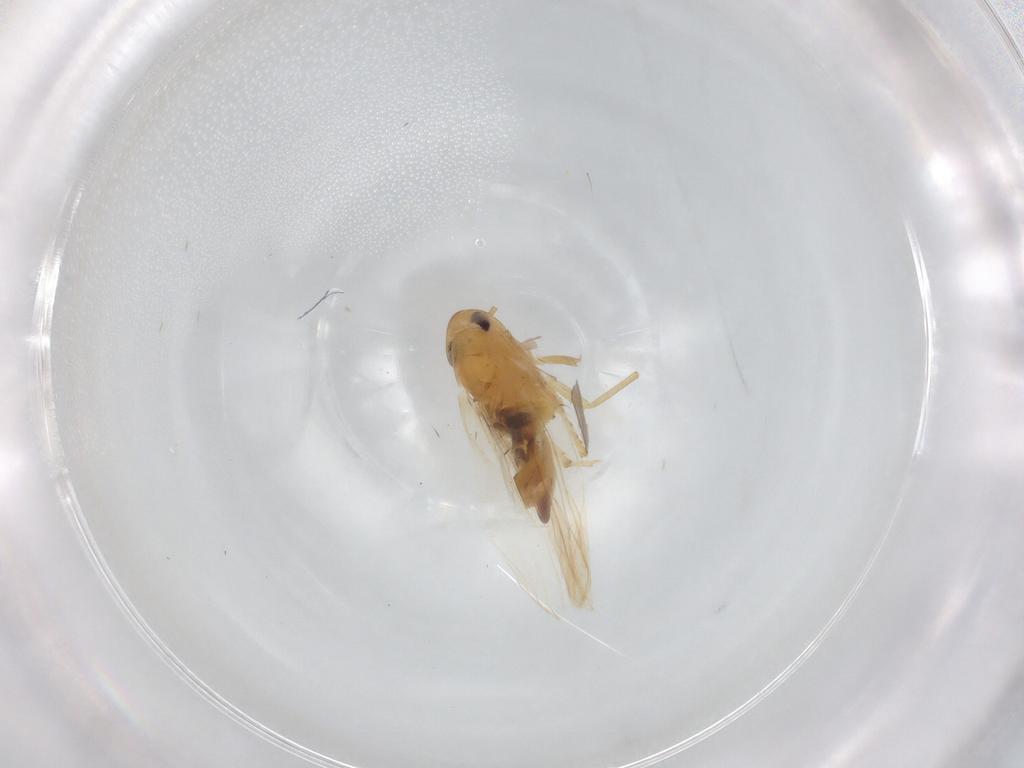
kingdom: Animalia
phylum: Arthropoda
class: Insecta
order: Hemiptera
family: Cicadellidae
